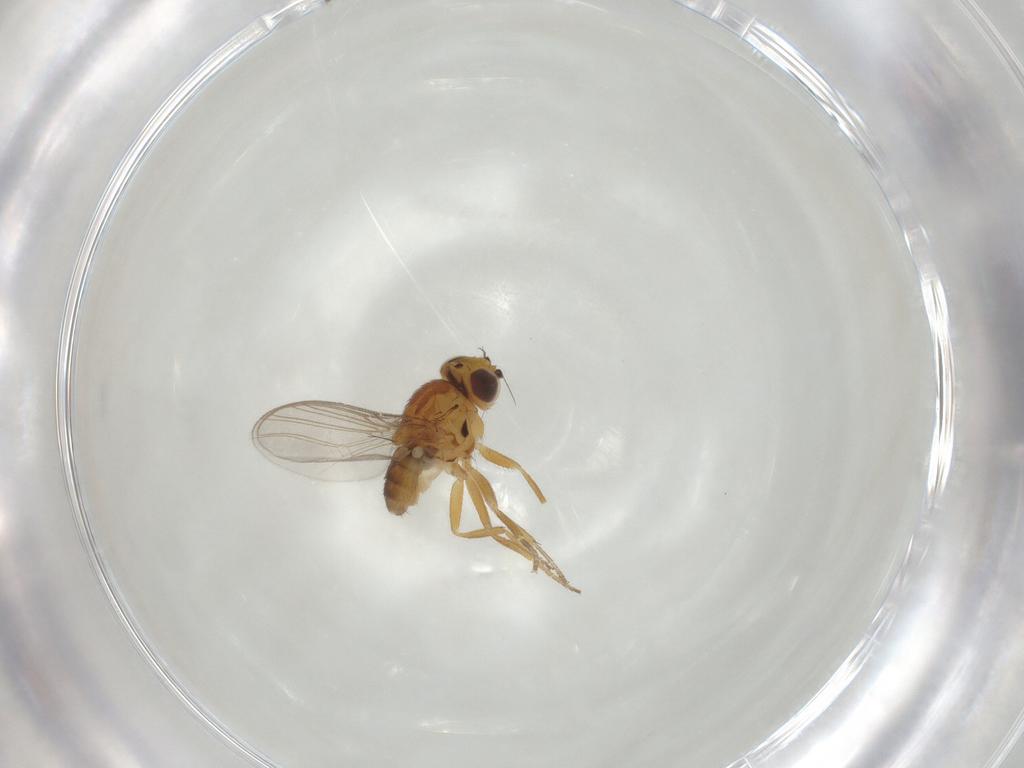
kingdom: Animalia
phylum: Arthropoda
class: Insecta
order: Diptera
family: Chloropidae
